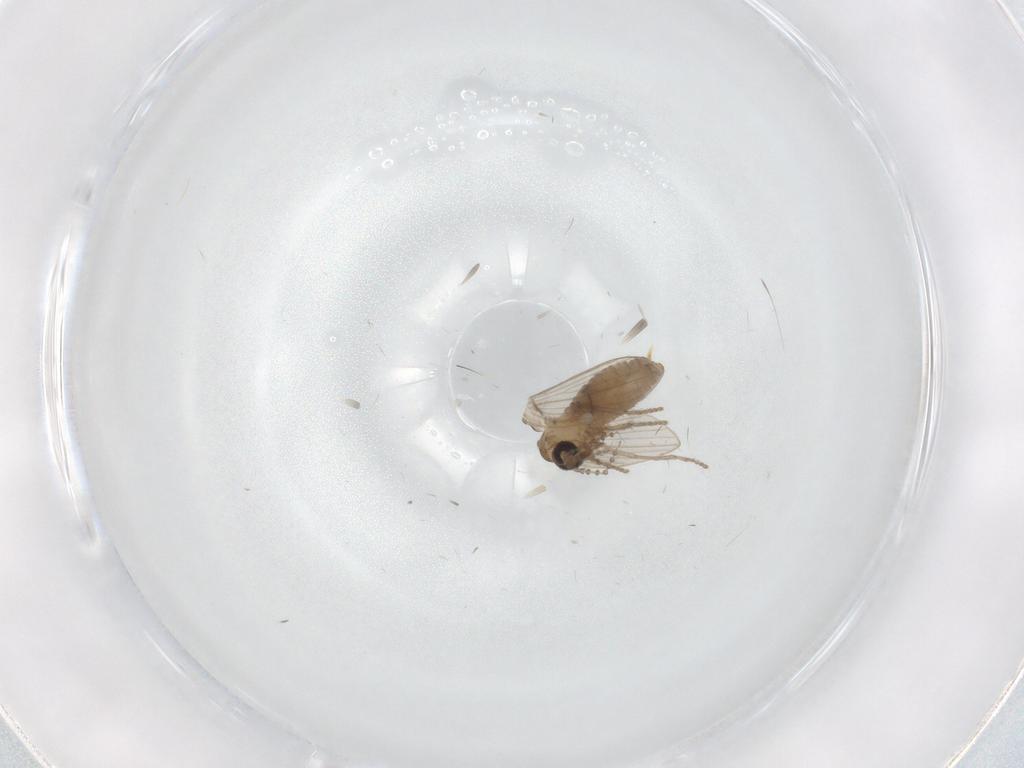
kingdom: Animalia
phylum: Arthropoda
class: Insecta
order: Diptera
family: Psychodidae
